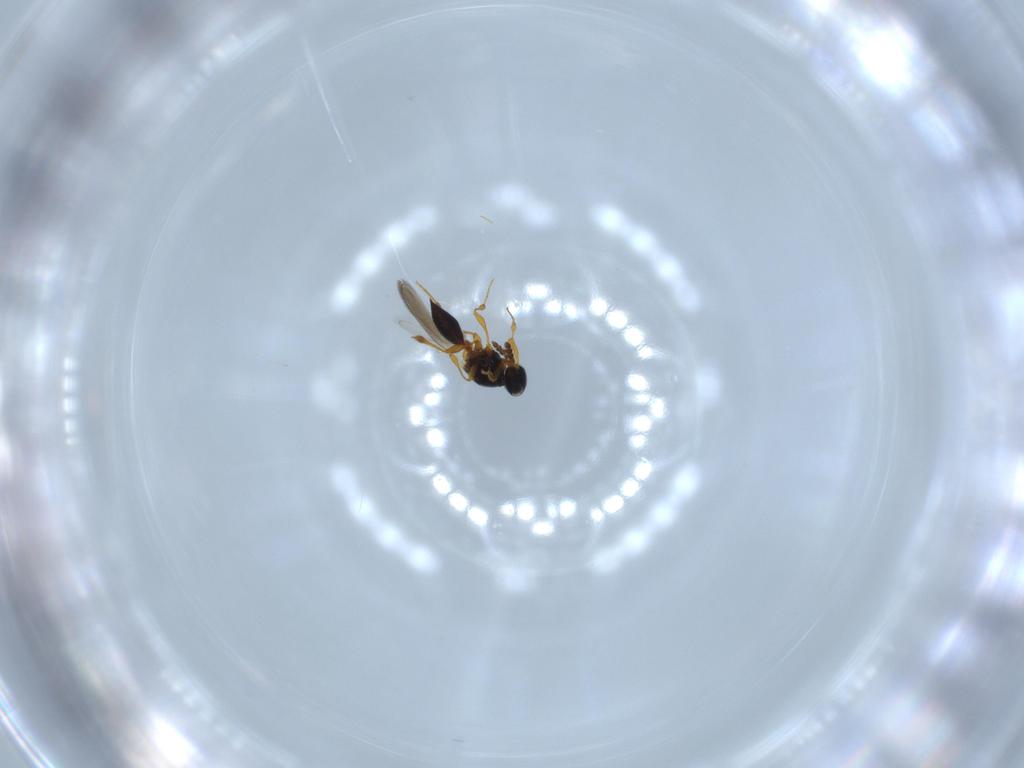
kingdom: Animalia
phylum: Arthropoda
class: Insecta
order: Hymenoptera
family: Platygastridae
